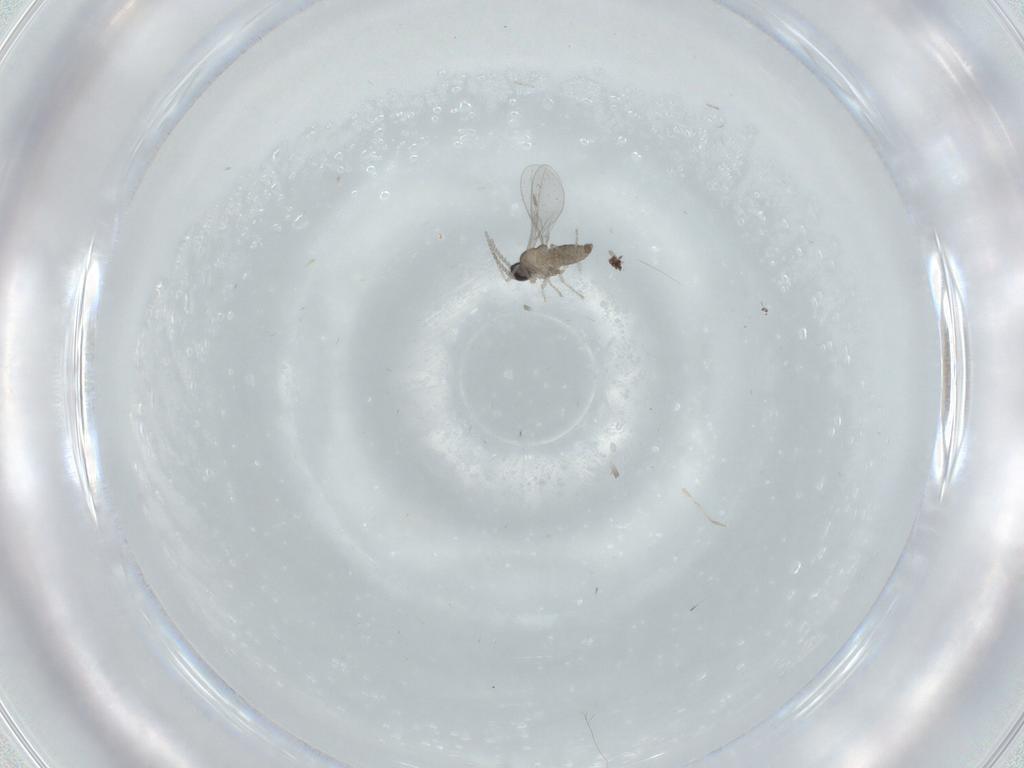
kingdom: Animalia
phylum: Arthropoda
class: Insecta
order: Diptera
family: Cecidomyiidae
